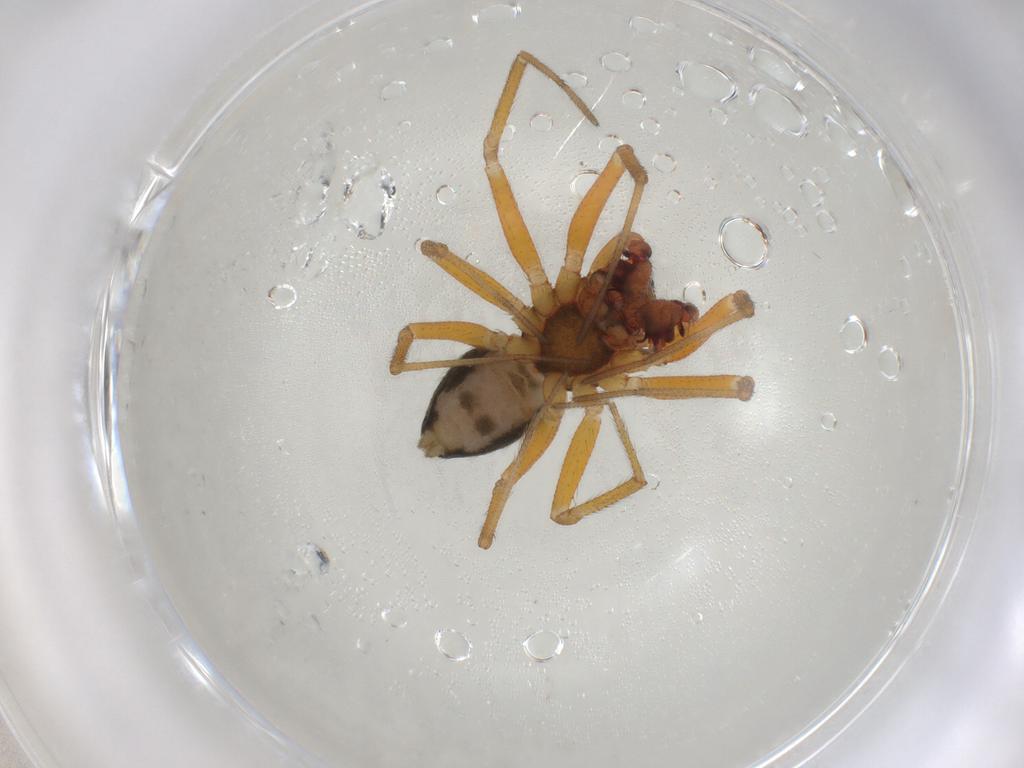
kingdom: Animalia
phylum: Arthropoda
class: Arachnida
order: Araneae
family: Linyphiidae
